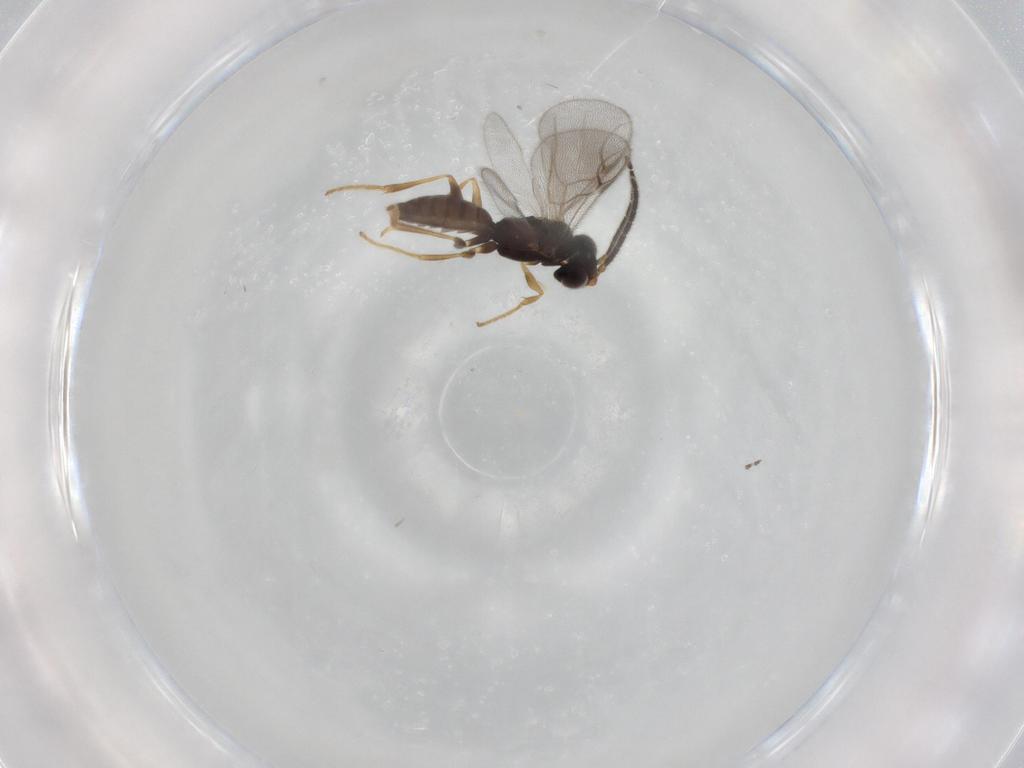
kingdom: Animalia
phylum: Arthropoda
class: Insecta
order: Hymenoptera
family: Dryinidae
